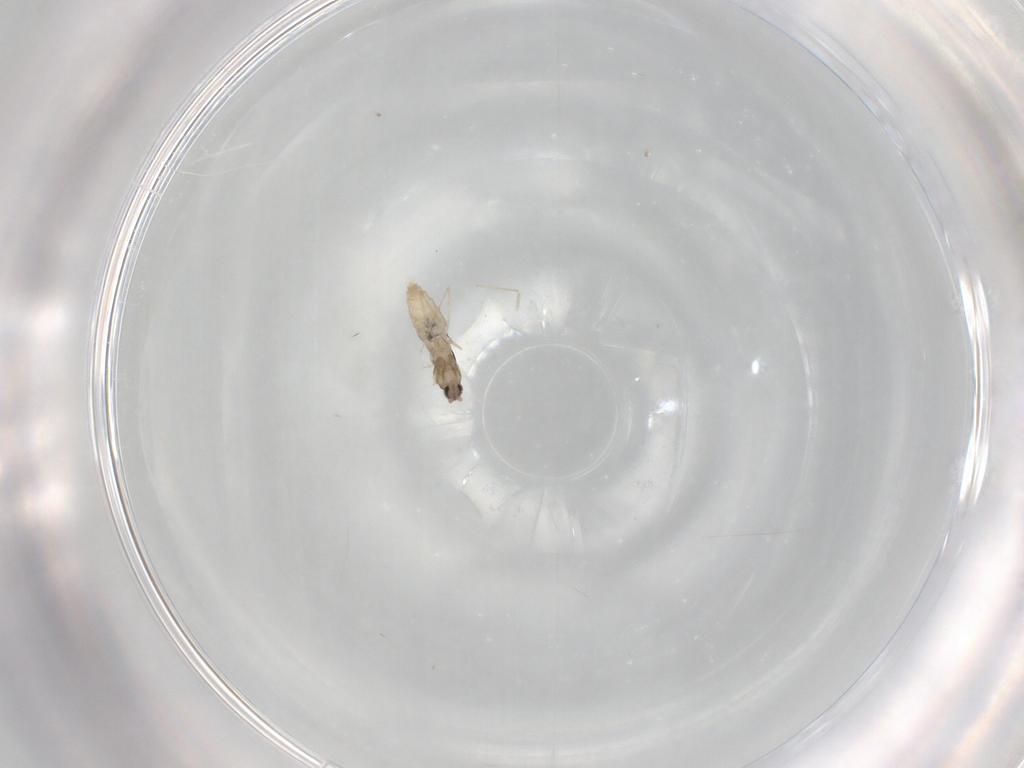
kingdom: Animalia
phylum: Arthropoda
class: Insecta
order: Diptera
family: Cecidomyiidae
